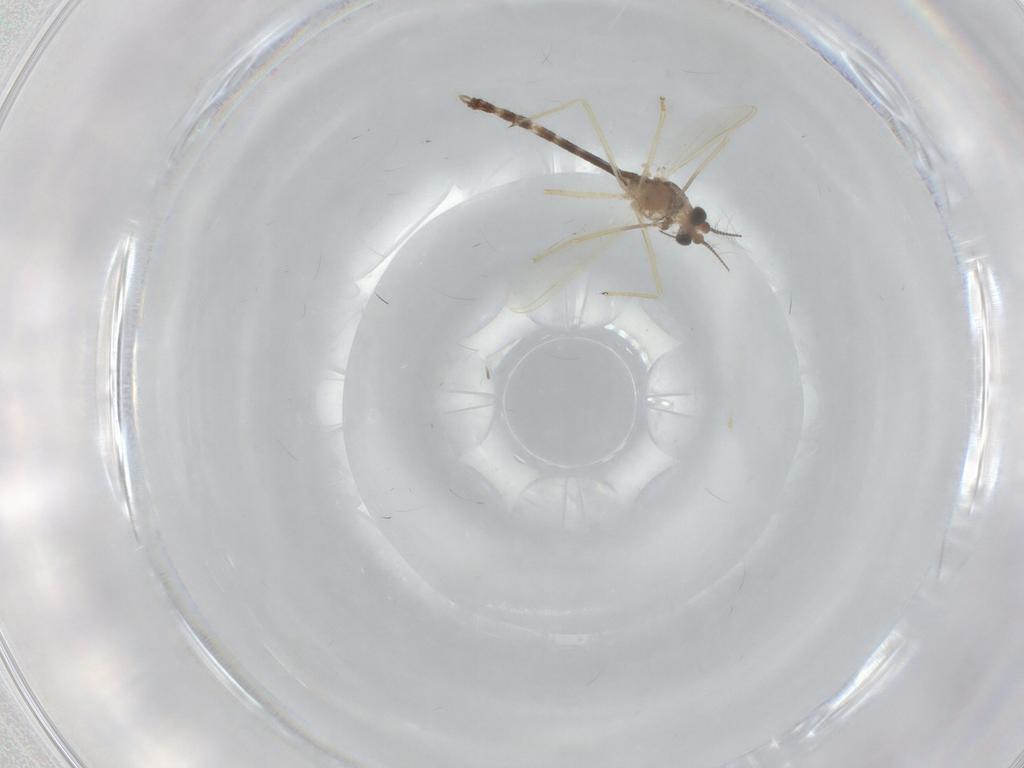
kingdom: Animalia
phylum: Arthropoda
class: Insecta
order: Diptera
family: Chironomidae
